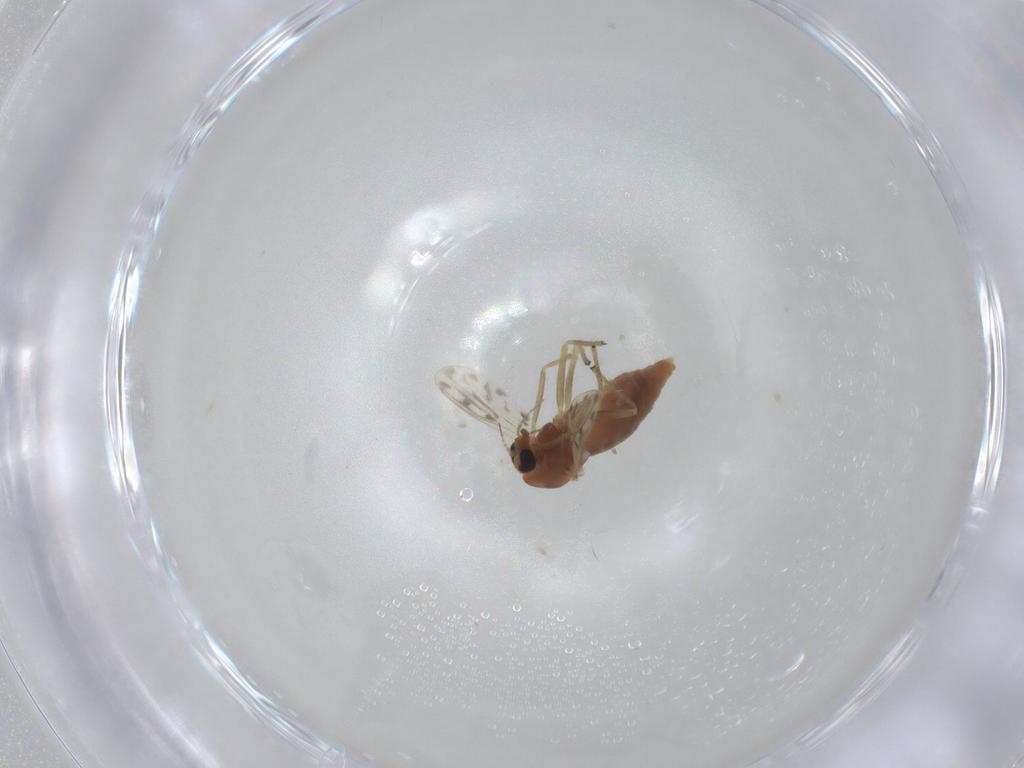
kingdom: Animalia
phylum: Arthropoda
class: Insecta
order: Diptera
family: Chironomidae
